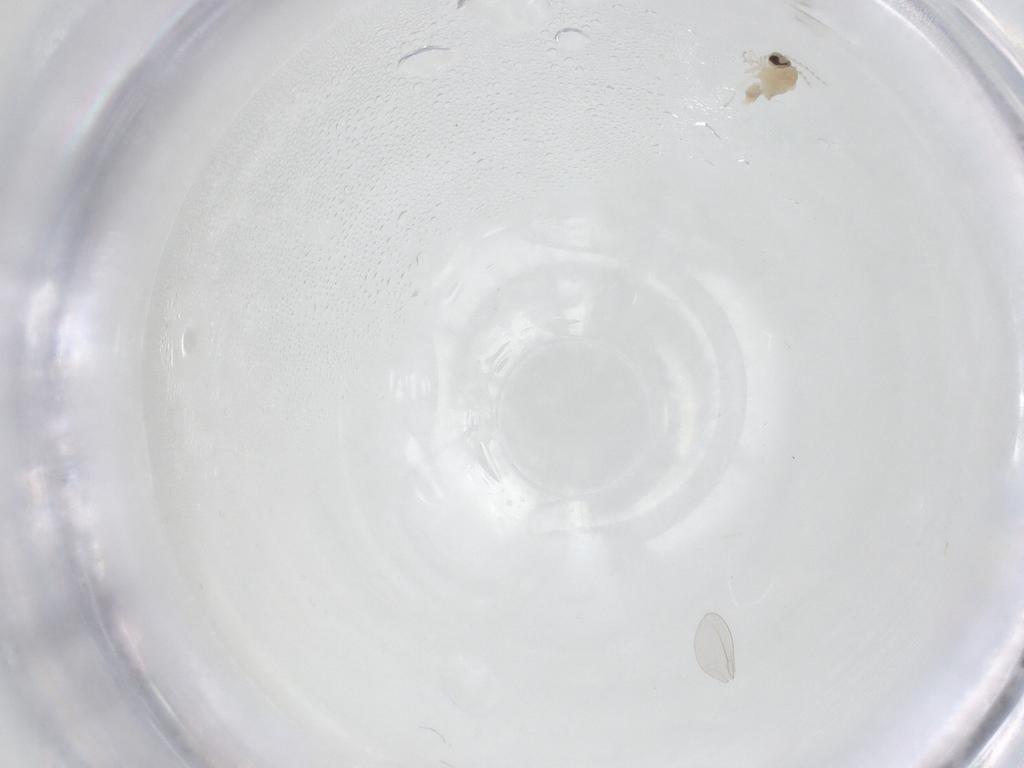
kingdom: Animalia
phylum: Arthropoda
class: Insecta
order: Diptera
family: Cecidomyiidae
